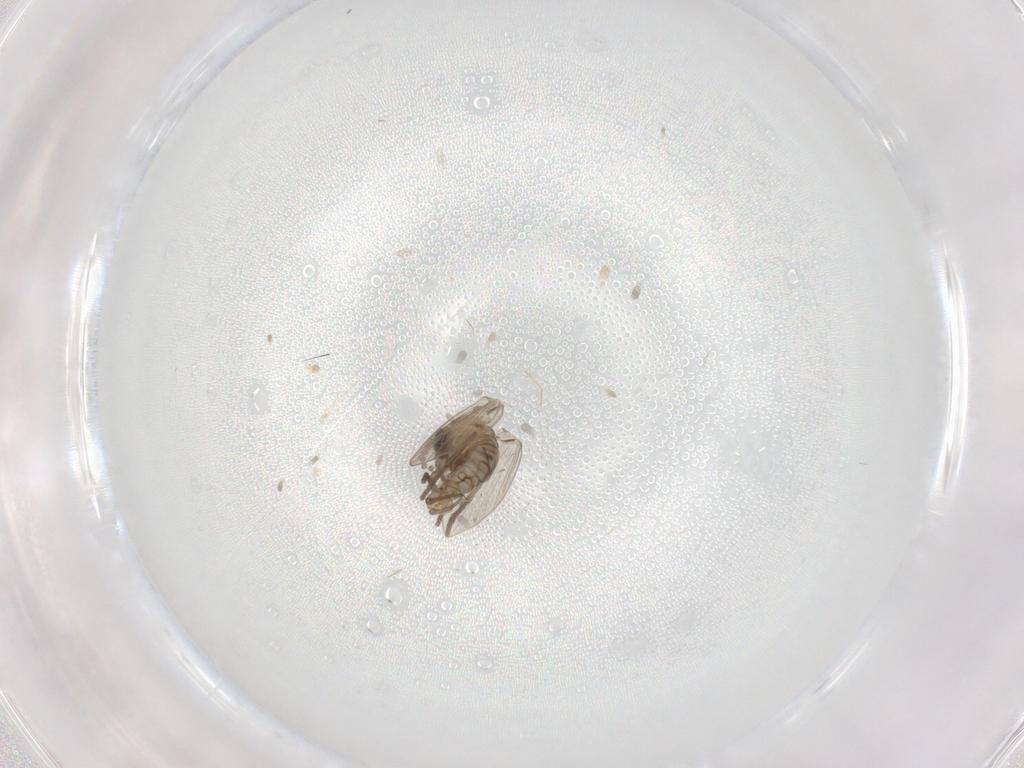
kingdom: Animalia
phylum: Arthropoda
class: Insecta
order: Diptera
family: Drosophilidae
